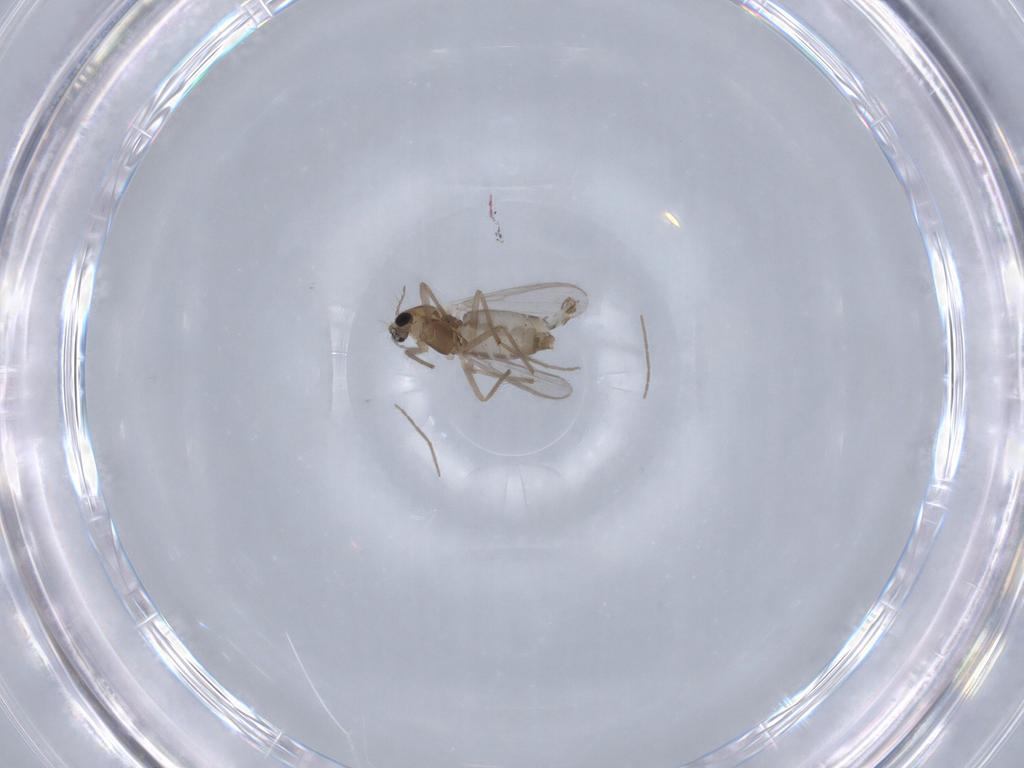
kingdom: Animalia
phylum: Arthropoda
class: Insecta
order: Diptera
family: Chironomidae
